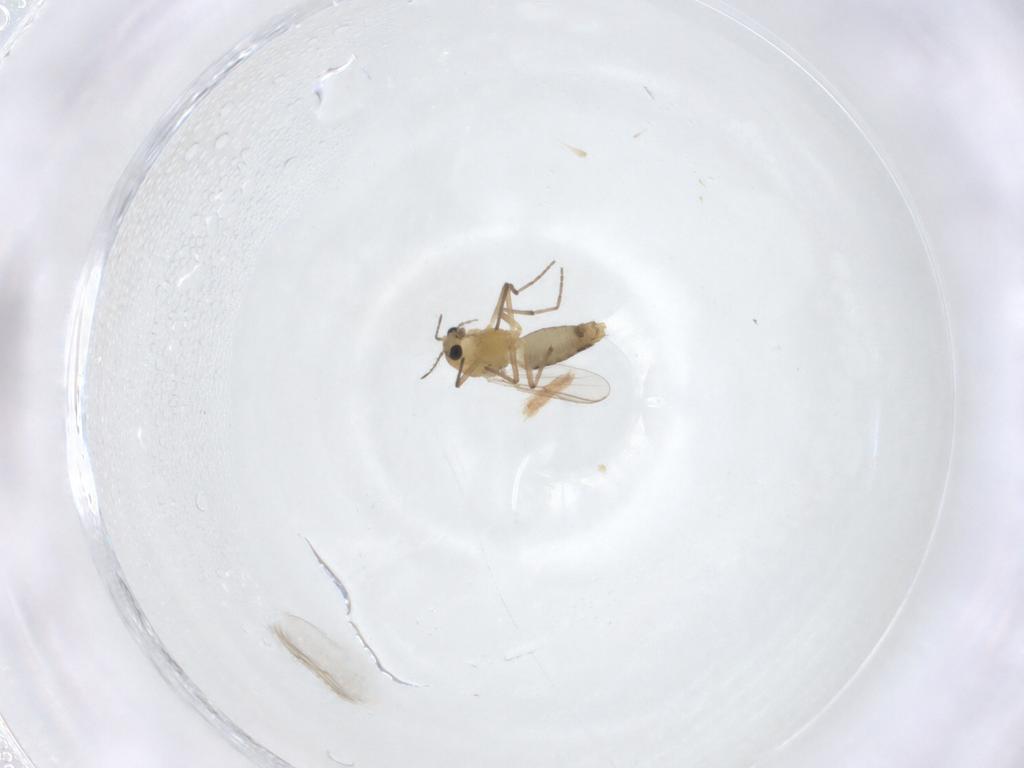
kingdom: Animalia
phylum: Arthropoda
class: Insecta
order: Diptera
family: Chironomidae
